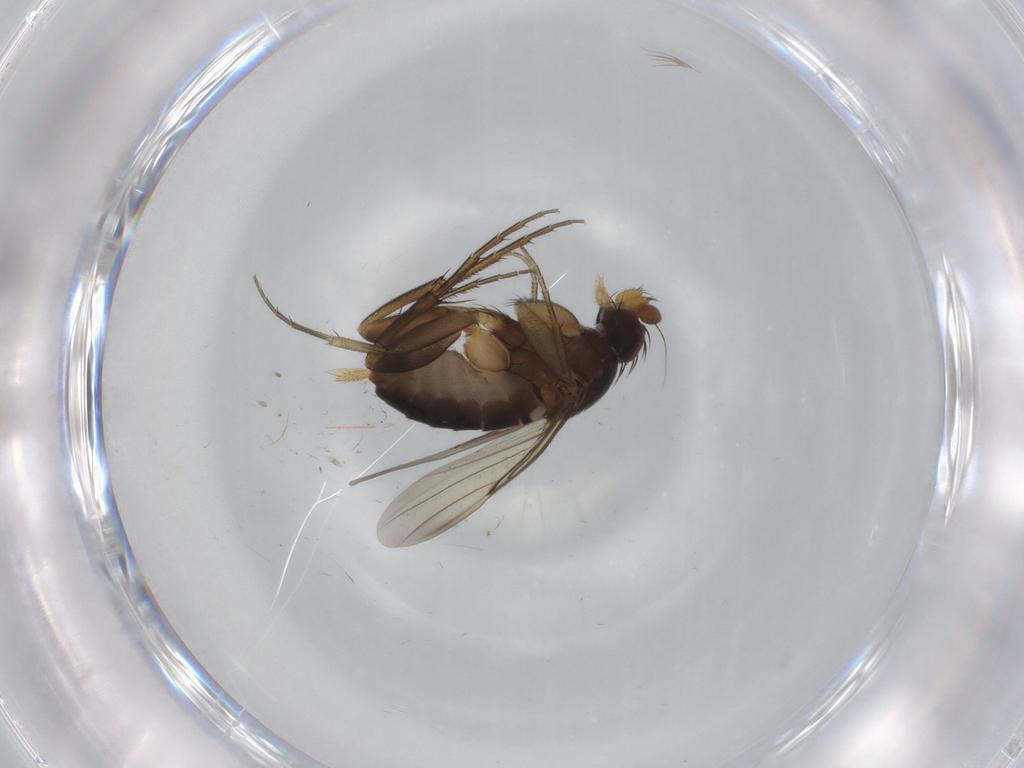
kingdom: Animalia
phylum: Arthropoda
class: Insecta
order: Diptera
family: Phoridae
